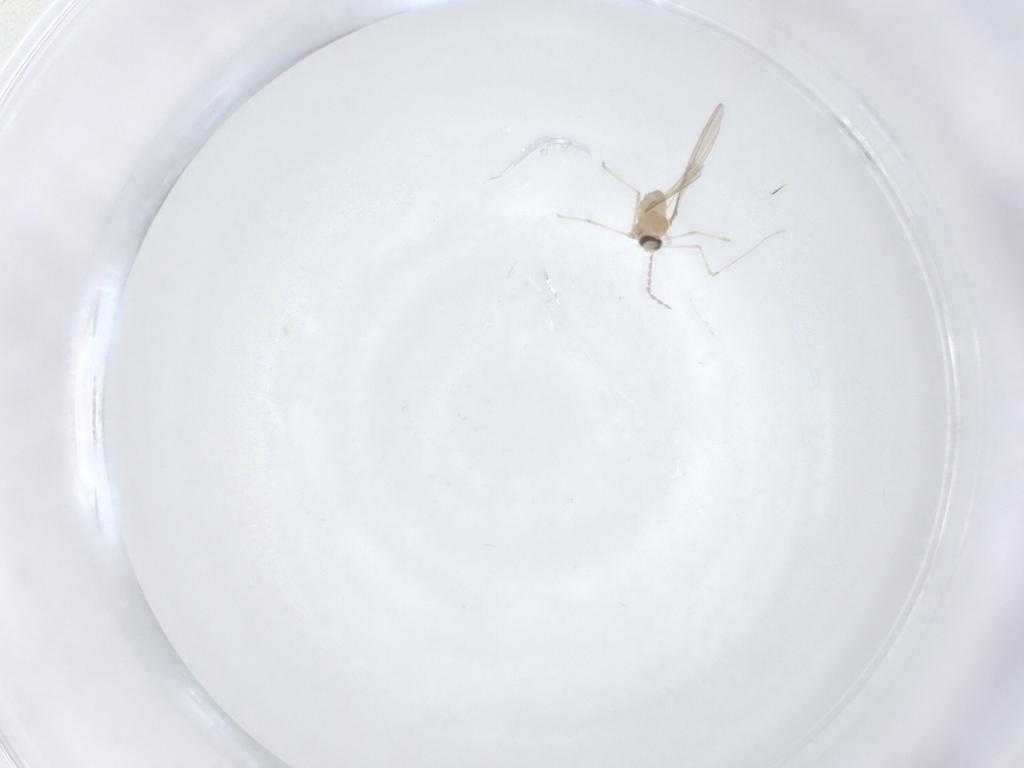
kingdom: Animalia
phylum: Arthropoda
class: Insecta
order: Diptera
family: Cecidomyiidae
